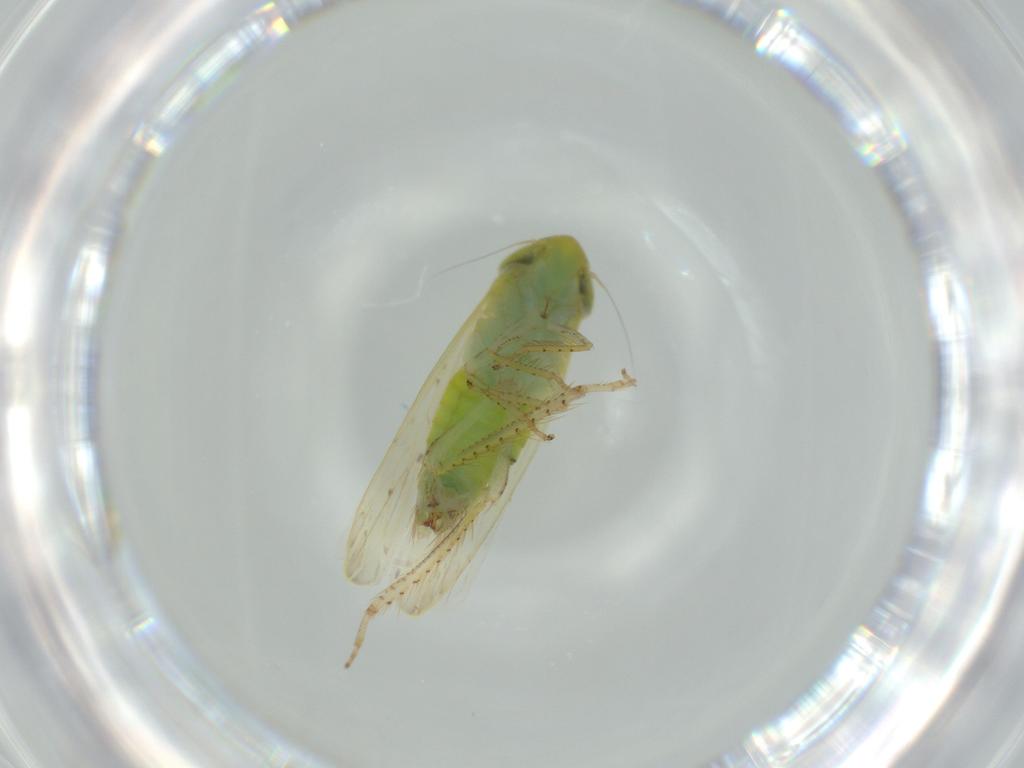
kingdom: Animalia
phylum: Arthropoda
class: Insecta
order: Hemiptera
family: Cicadellidae
